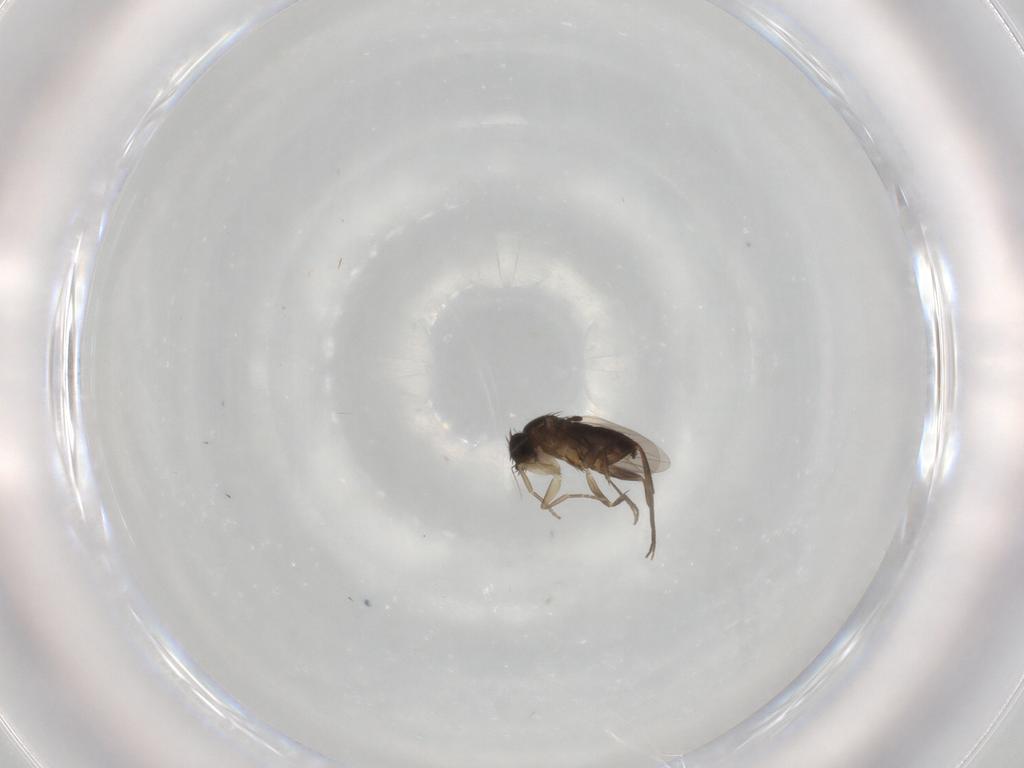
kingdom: Animalia
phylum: Arthropoda
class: Insecta
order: Diptera
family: Phoridae
